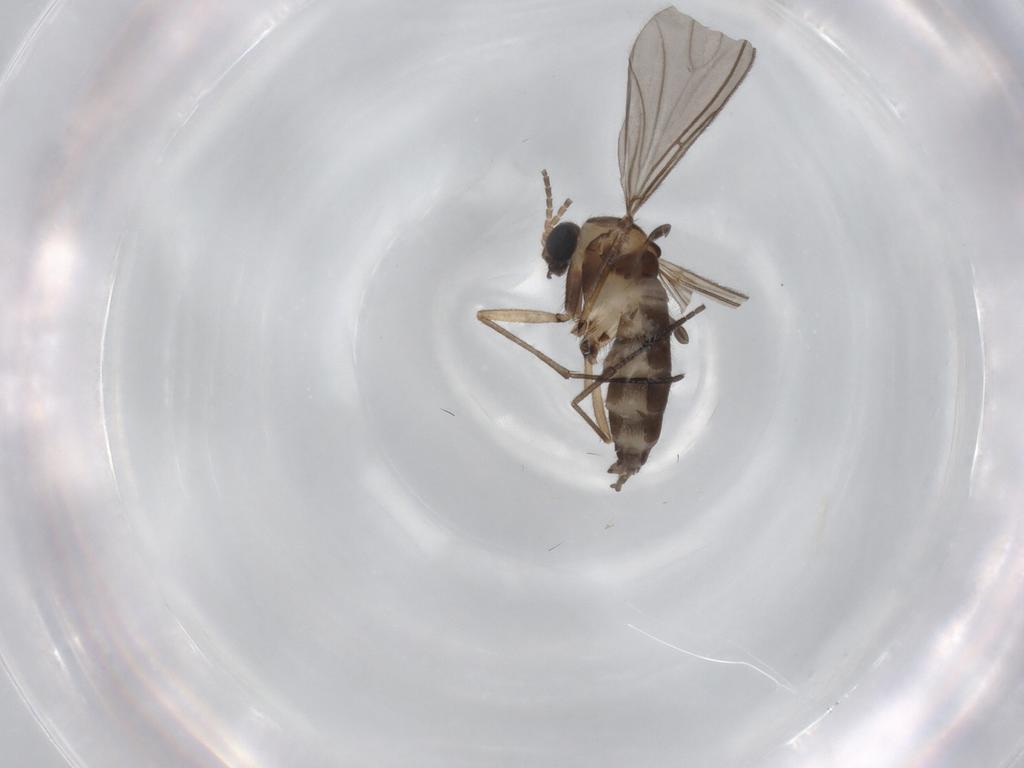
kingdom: Animalia
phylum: Arthropoda
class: Insecta
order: Diptera
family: Sciaridae
